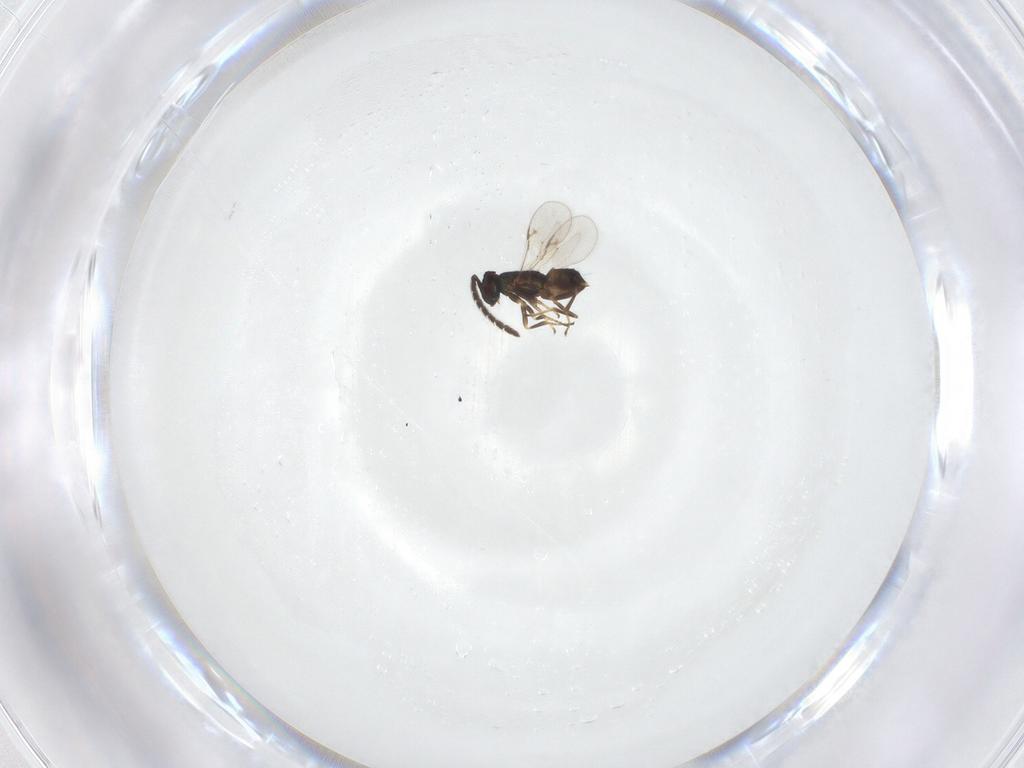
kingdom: Animalia
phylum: Arthropoda
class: Insecta
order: Hymenoptera
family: Encyrtidae
